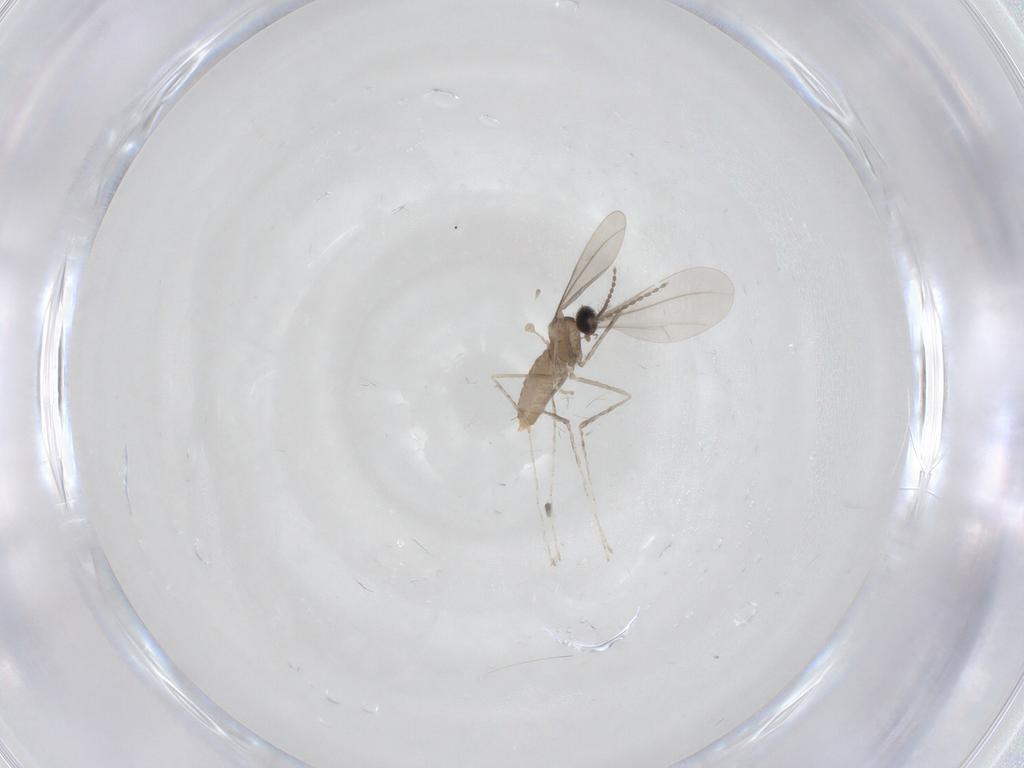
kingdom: Animalia
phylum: Arthropoda
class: Insecta
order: Diptera
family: Cecidomyiidae
